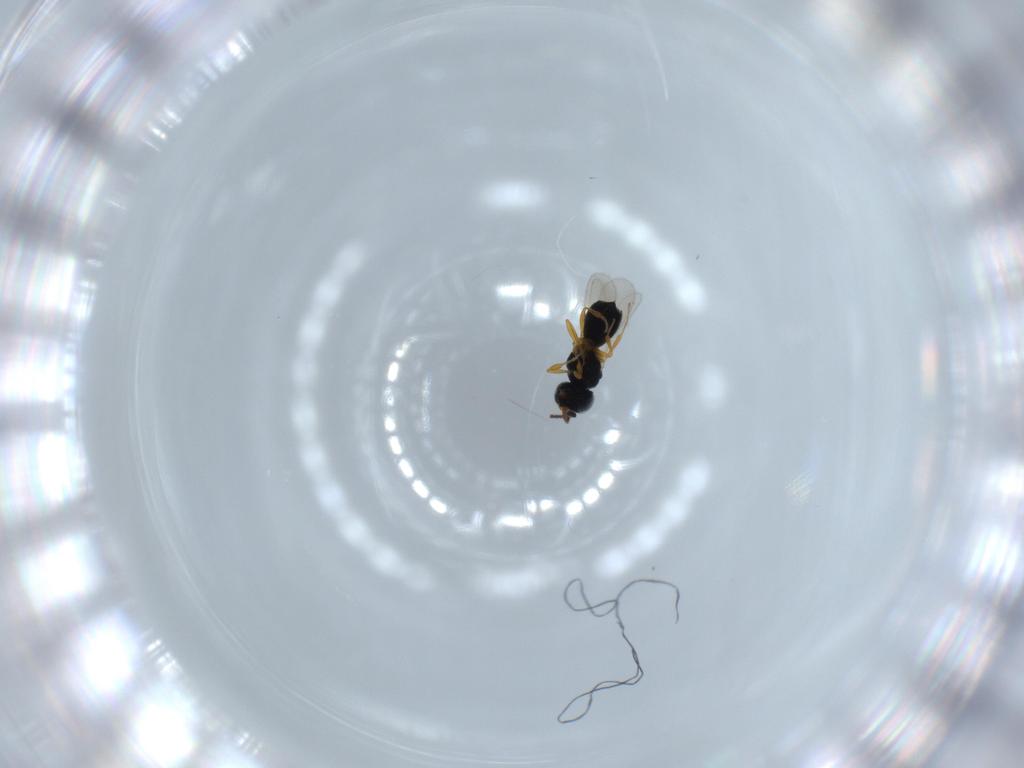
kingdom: Animalia
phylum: Arthropoda
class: Insecta
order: Hymenoptera
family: Scelionidae
